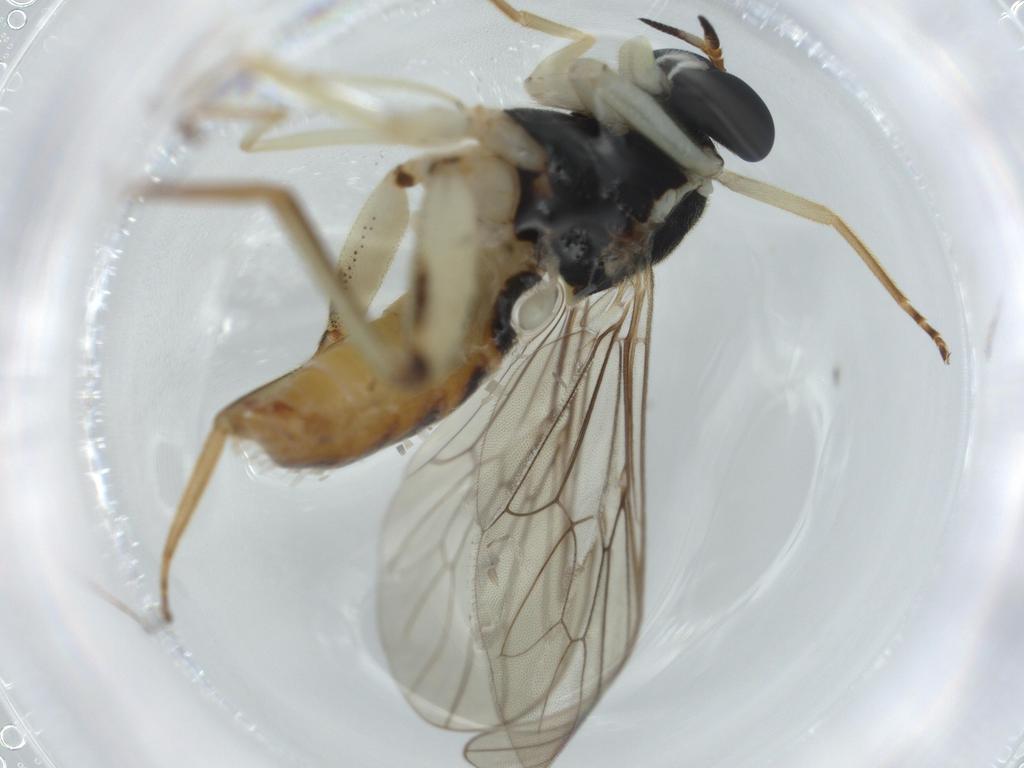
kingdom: Animalia
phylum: Arthropoda
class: Insecta
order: Diptera
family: Chloropidae
